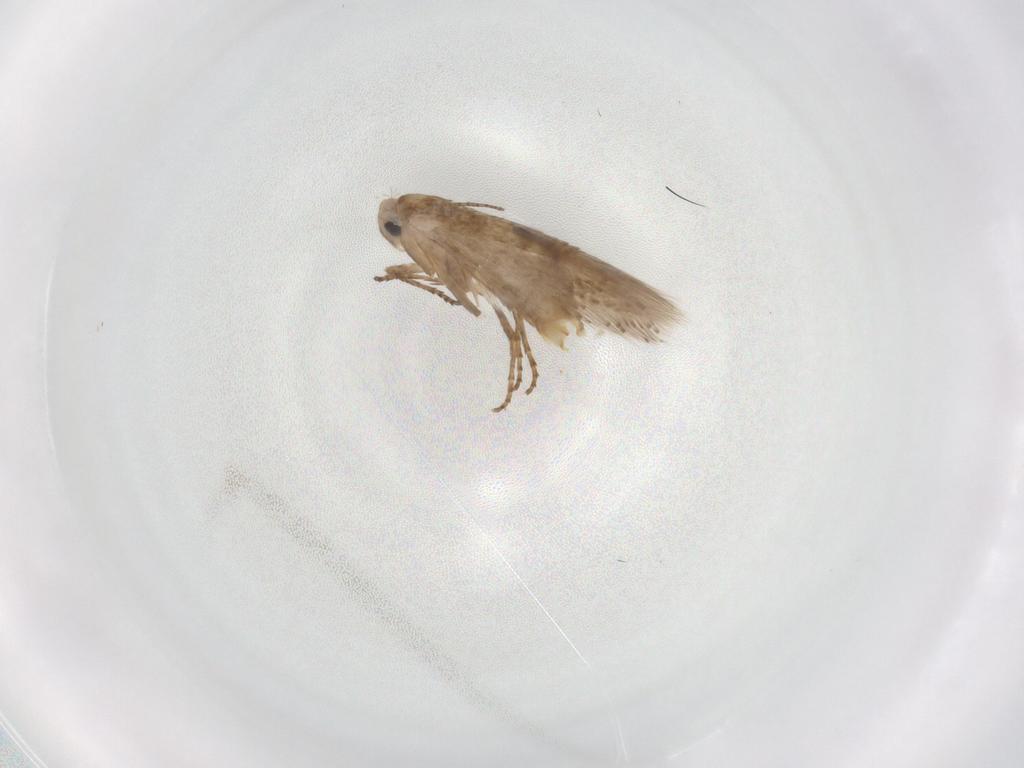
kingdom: Animalia
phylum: Arthropoda
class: Insecta
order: Lepidoptera
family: Bucculatricidae
